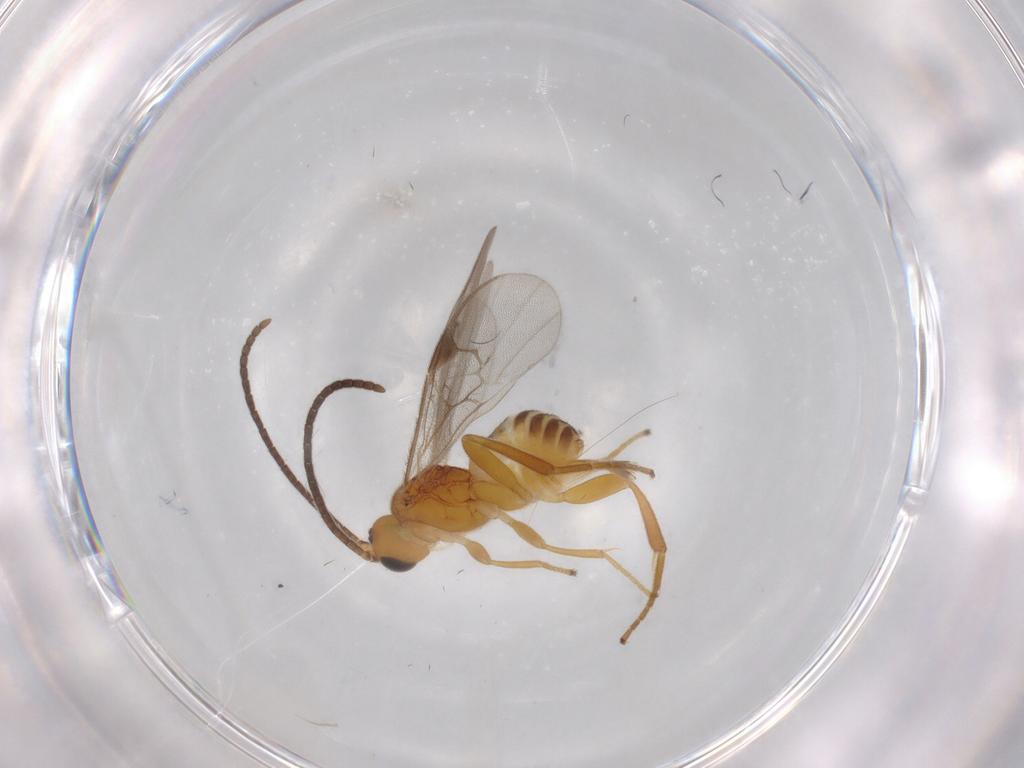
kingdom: Animalia
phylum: Arthropoda
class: Insecta
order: Hymenoptera
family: Braconidae
